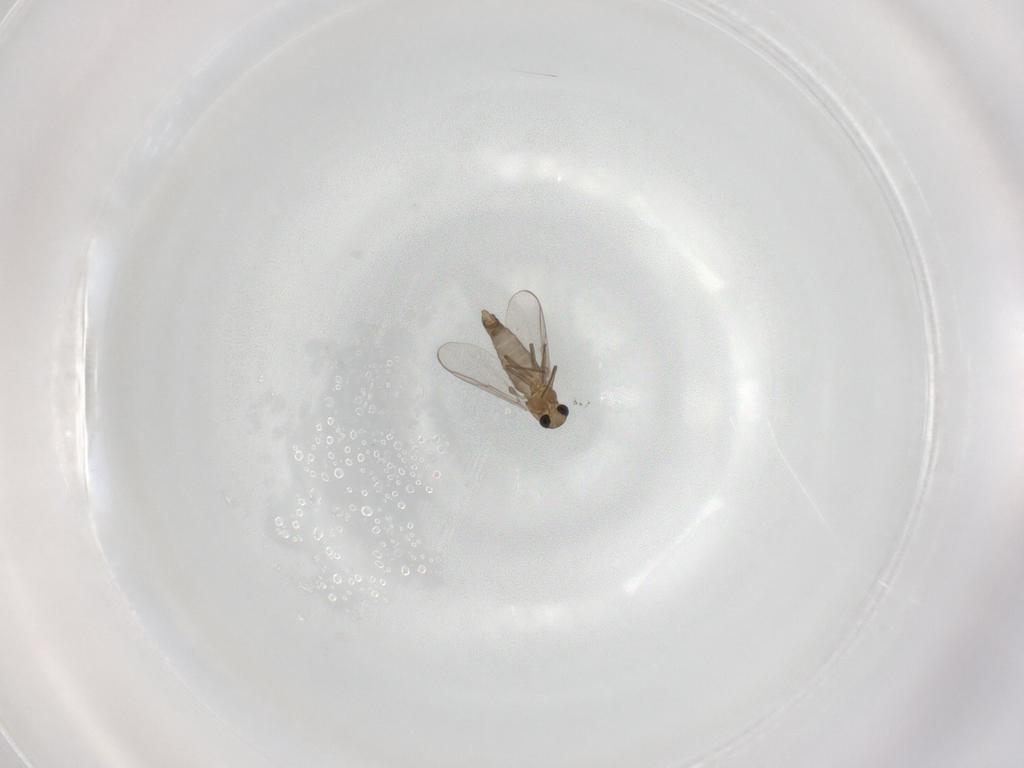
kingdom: Animalia
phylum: Arthropoda
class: Insecta
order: Diptera
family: Chironomidae
